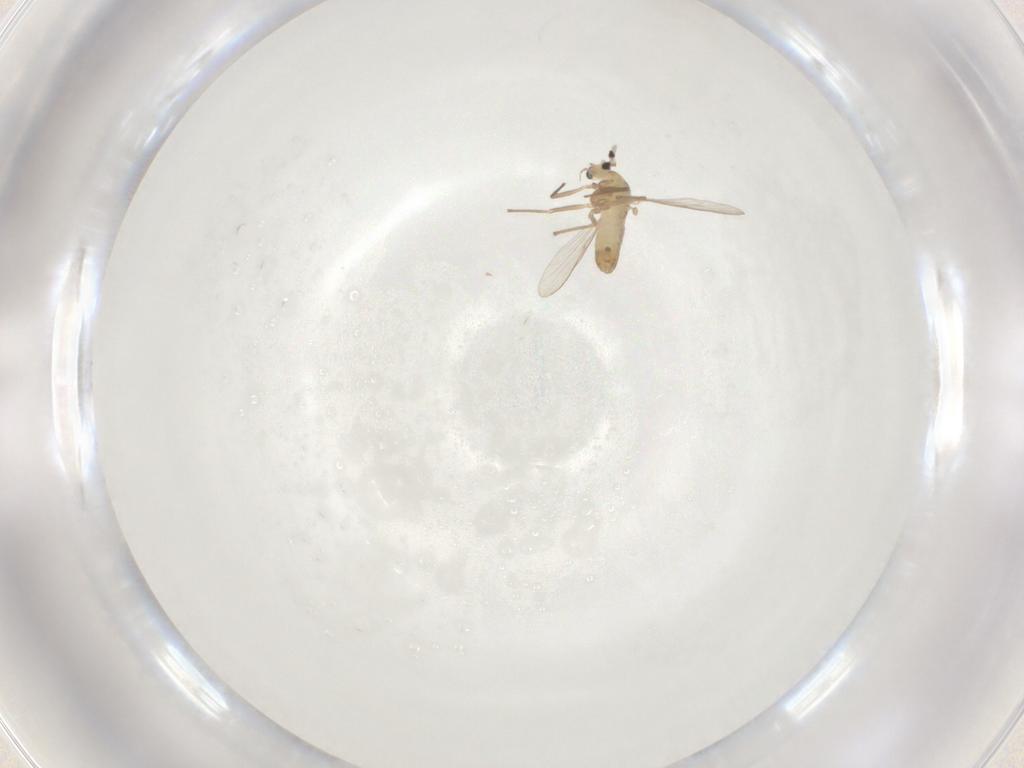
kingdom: Animalia
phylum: Arthropoda
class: Insecta
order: Diptera
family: Chironomidae
